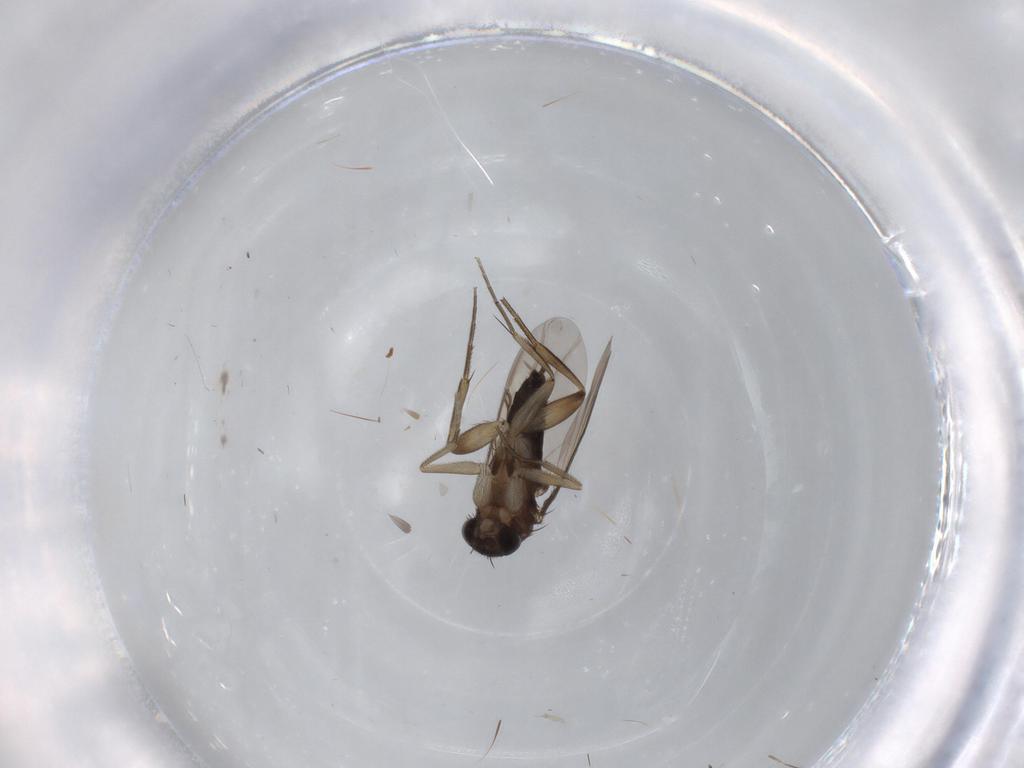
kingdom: Animalia
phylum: Arthropoda
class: Insecta
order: Diptera
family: Phoridae
